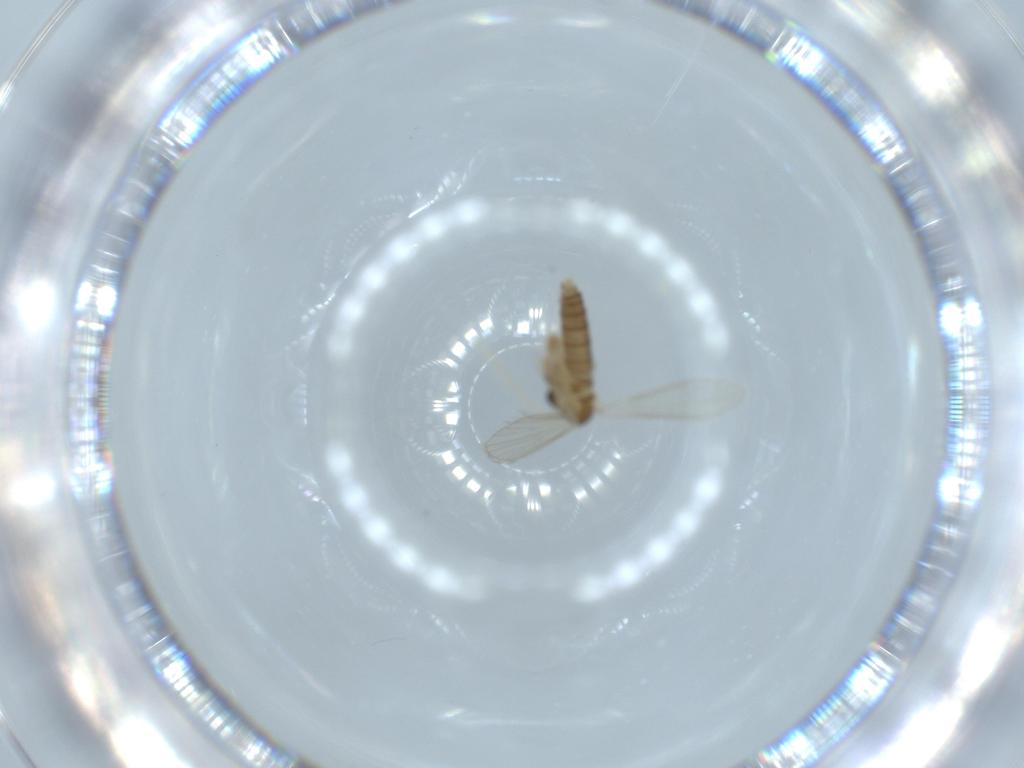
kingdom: Animalia
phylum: Arthropoda
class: Insecta
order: Diptera
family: Psychodidae
